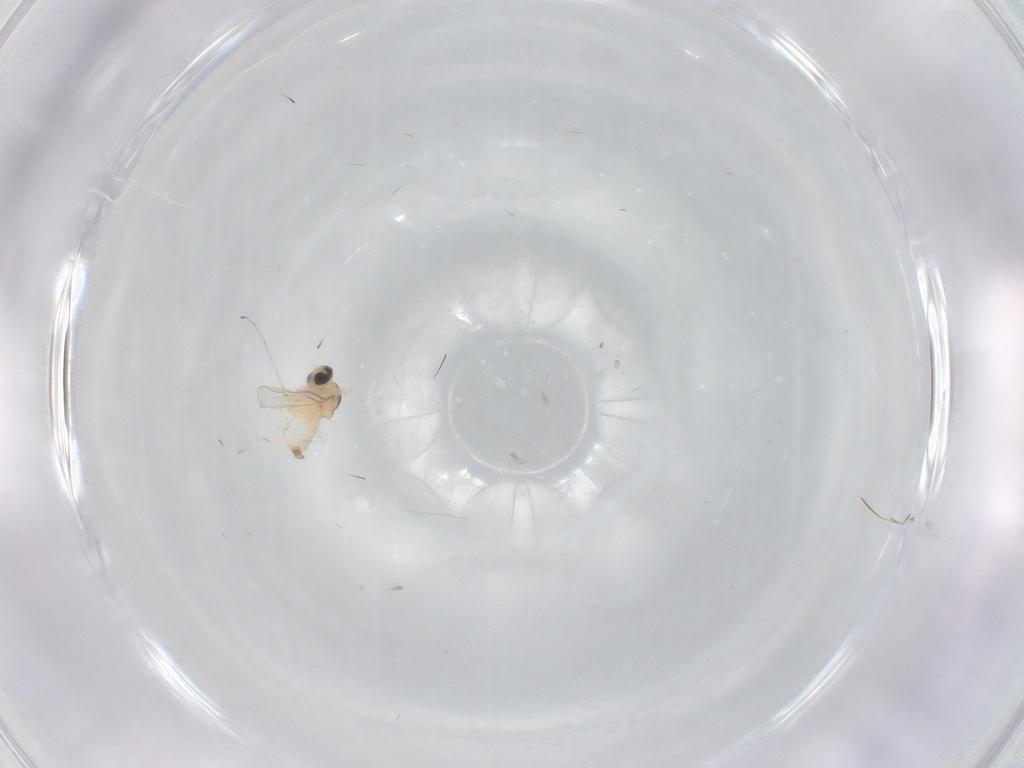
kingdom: Animalia
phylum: Arthropoda
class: Insecta
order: Diptera
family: Cecidomyiidae
